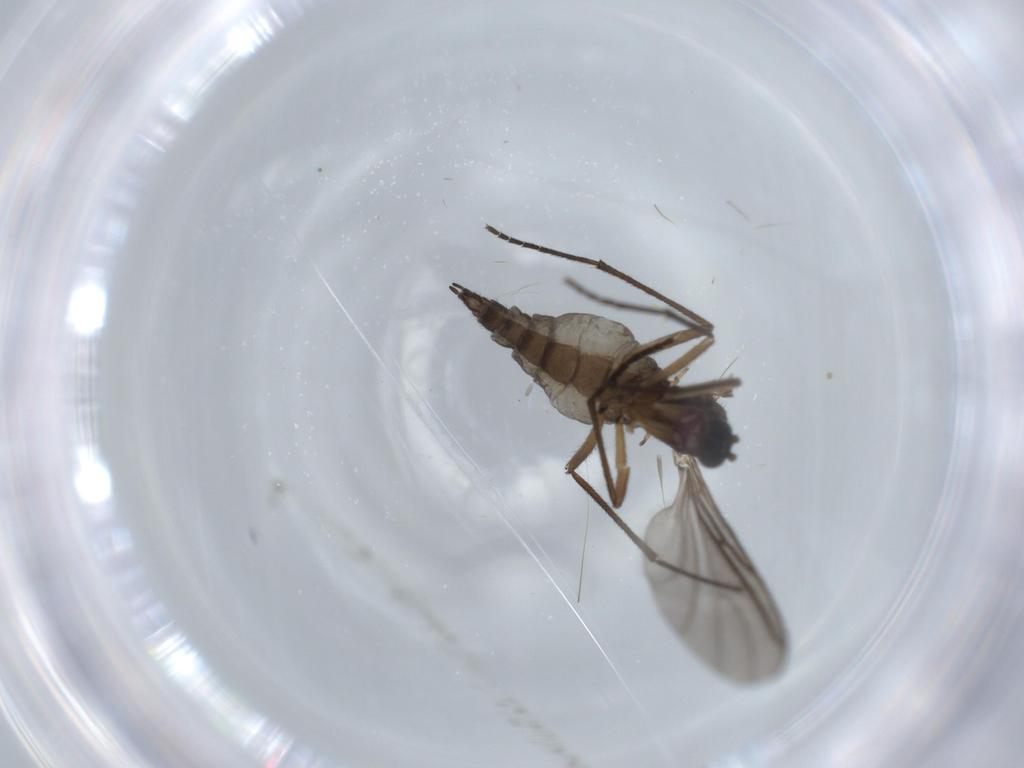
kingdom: Animalia
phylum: Arthropoda
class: Insecta
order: Diptera
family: Sciaridae
